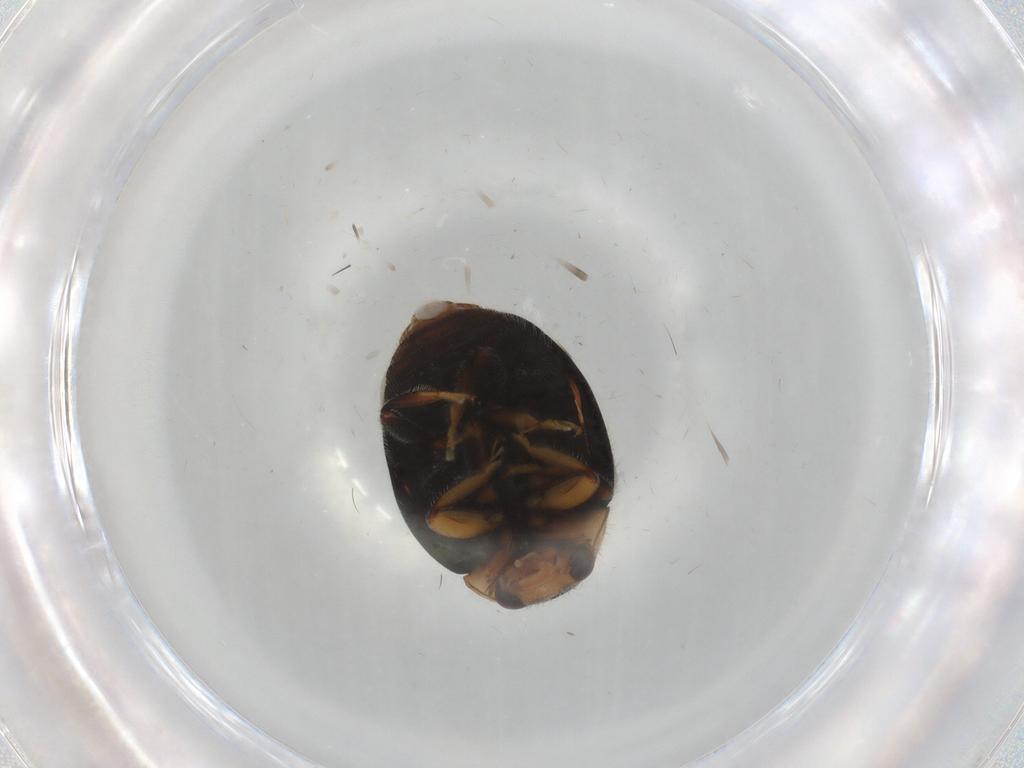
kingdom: Animalia
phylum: Arthropoda
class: Insecta
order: Coleoptera
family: Coccinellidae
